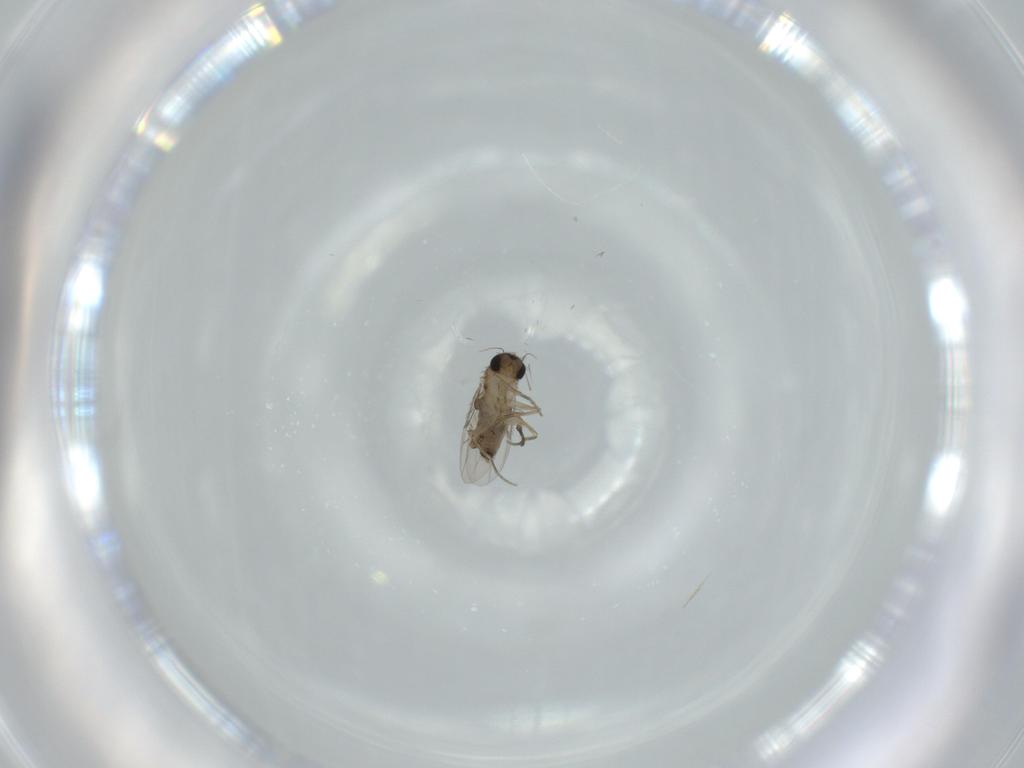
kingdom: Animalia
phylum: Arthropoda
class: Insecta
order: Diptera
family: Phoridae
